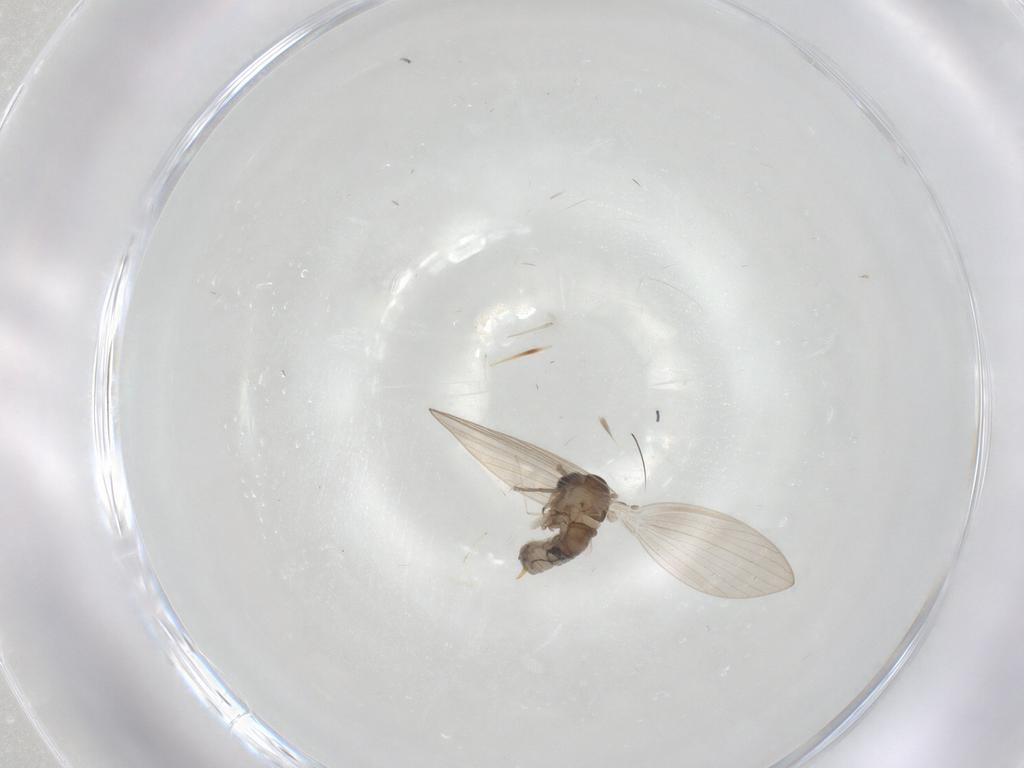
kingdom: Animalia
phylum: Arthropoda
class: Insecta
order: Diptera
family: Psychodidae
